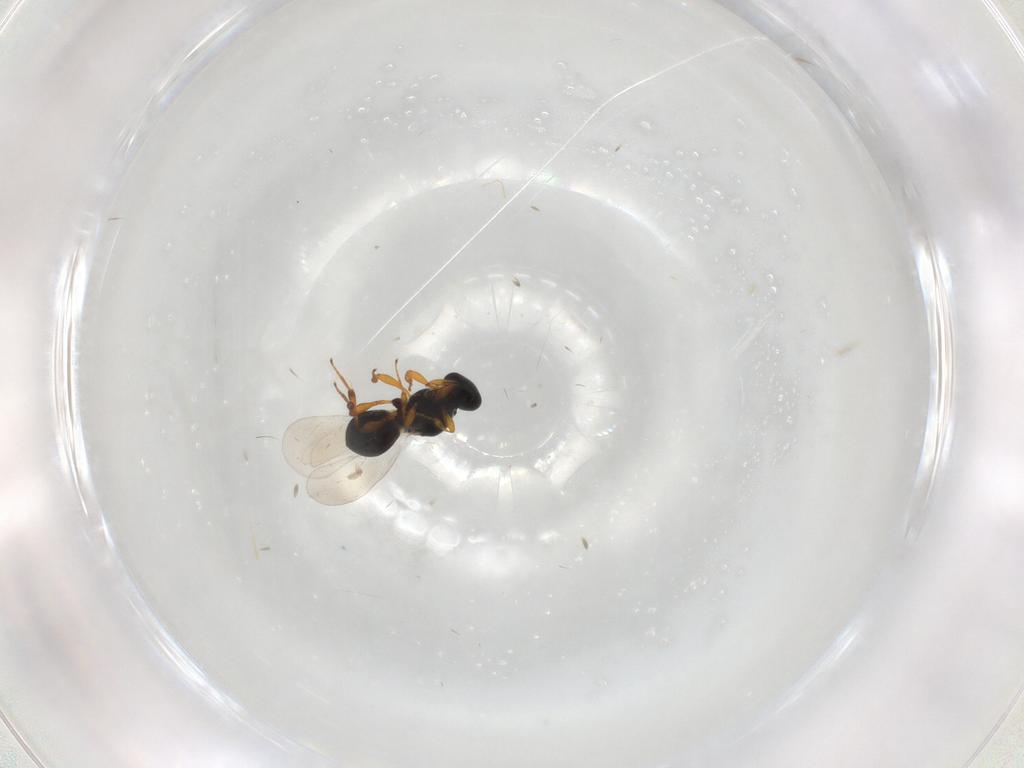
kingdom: Animalia
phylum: Arthropoda
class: Insecta
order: Hymenoptera
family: Platygastridae
